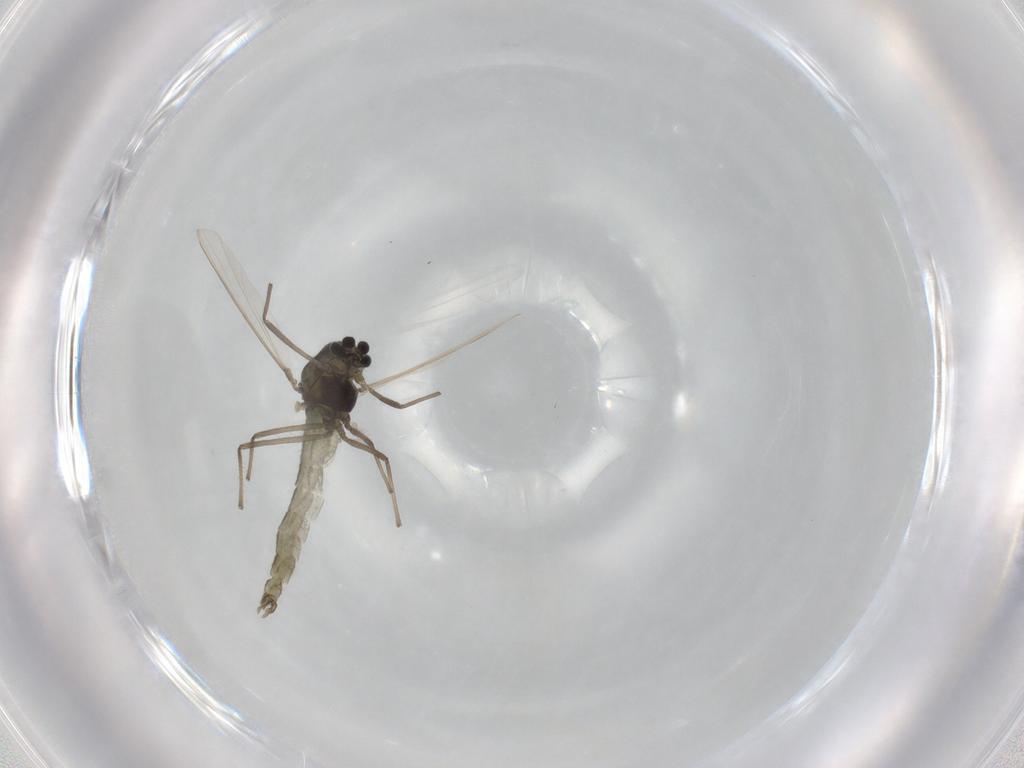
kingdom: Animalia
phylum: Arthropoda
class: Insecta
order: Diptera
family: Chironomidae
